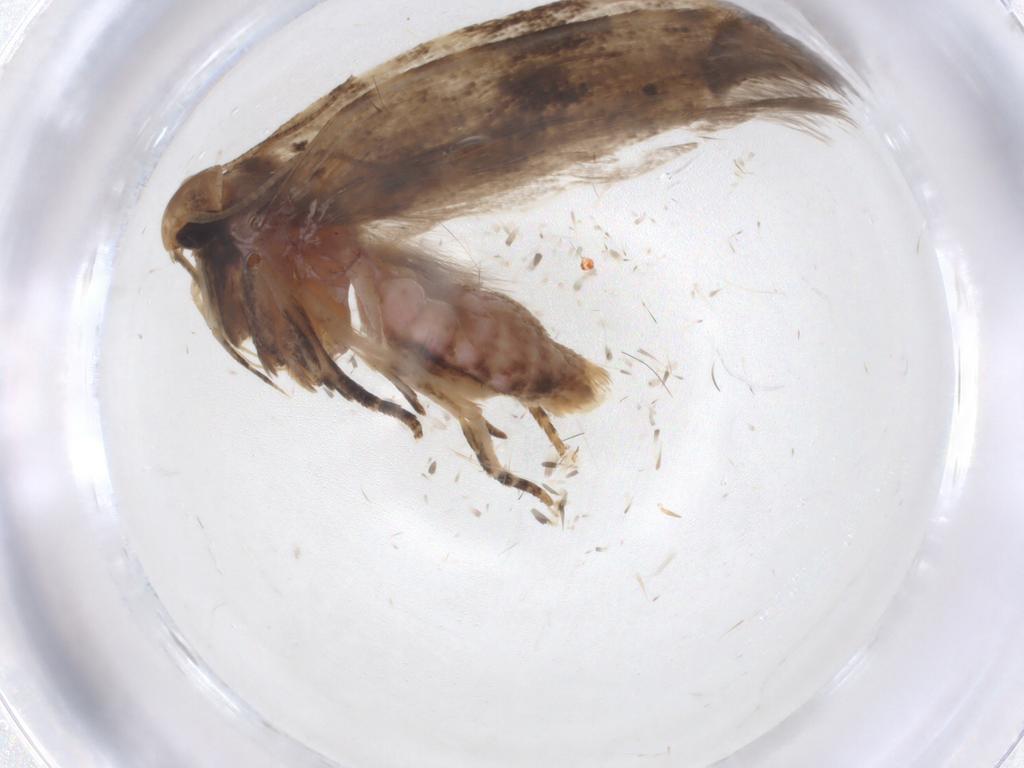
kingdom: Animalia
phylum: Arthropoda
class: Insecta
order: Lepidoptera
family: Gelechiidae
